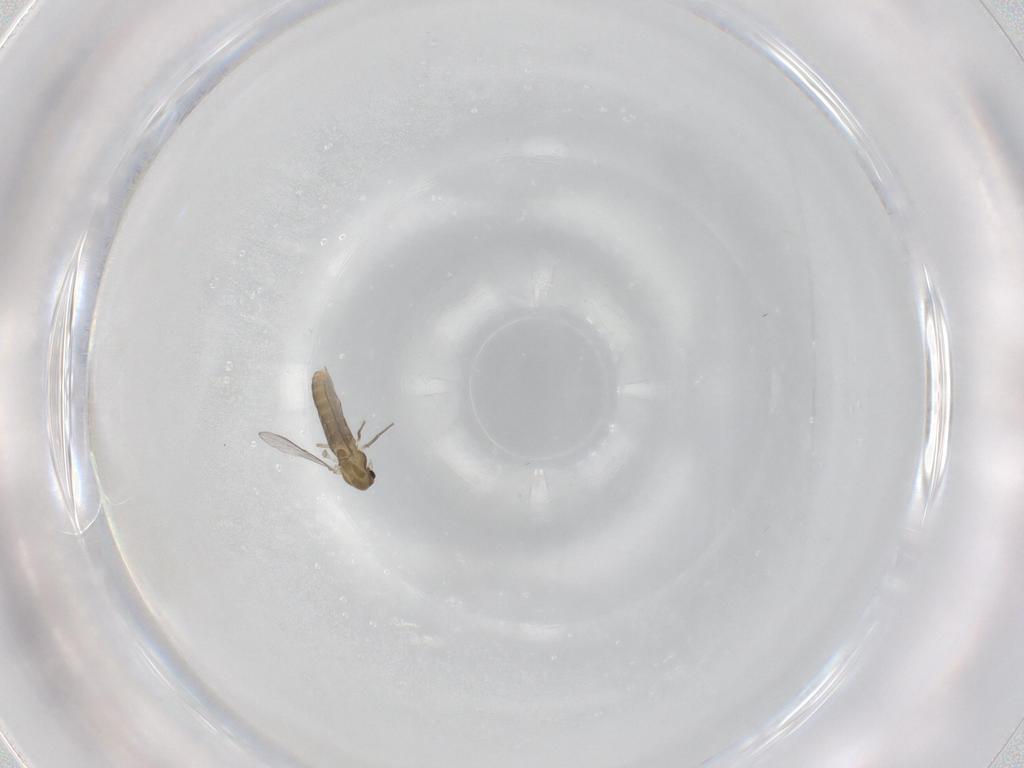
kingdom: Animalia
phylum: Arthropoda
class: Insecta
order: Diptera
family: Chironomidae
